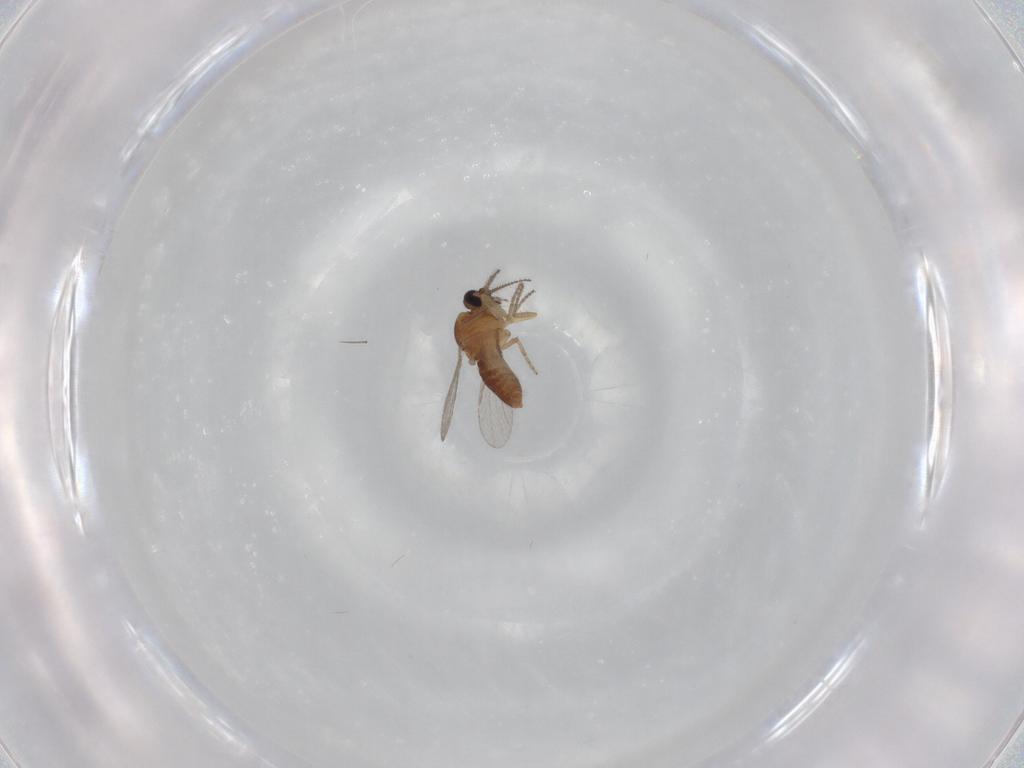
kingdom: Animalia
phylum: Arthropoda
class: Insecta
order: Diptera
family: Ceratopogonidae
